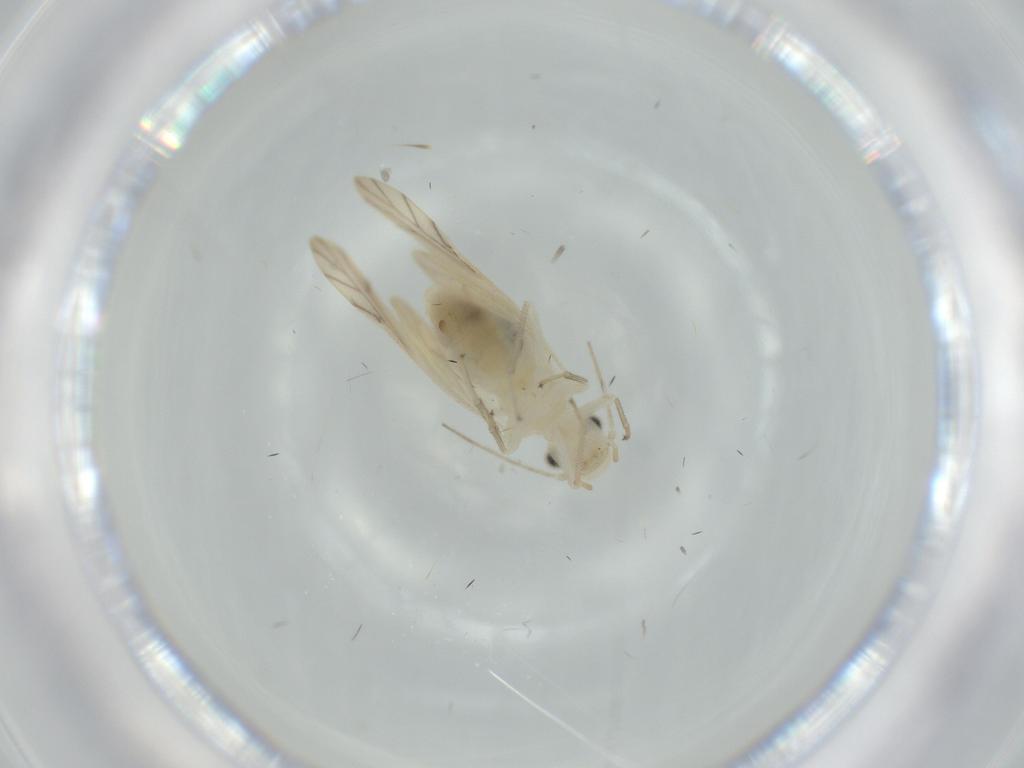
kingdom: Animalia
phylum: Arthropoda
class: Insecta
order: Psocodea
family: Caeciliusidae
